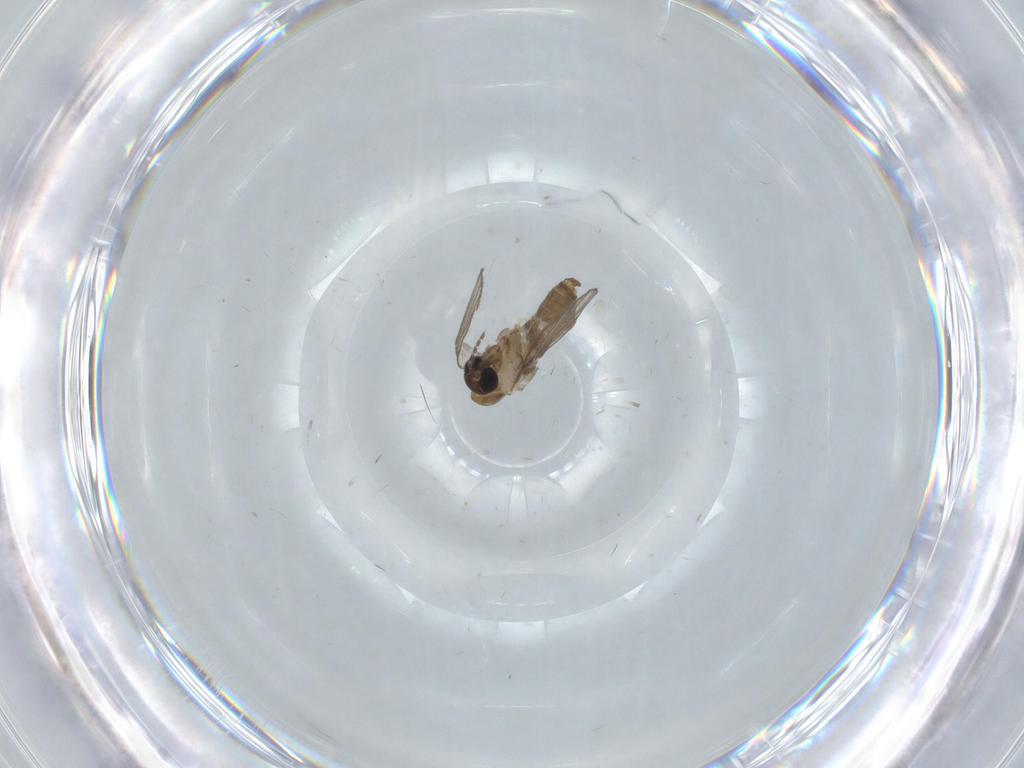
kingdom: Animalia
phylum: Arthropoda
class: Insecta
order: Diptera
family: Psychodidae
